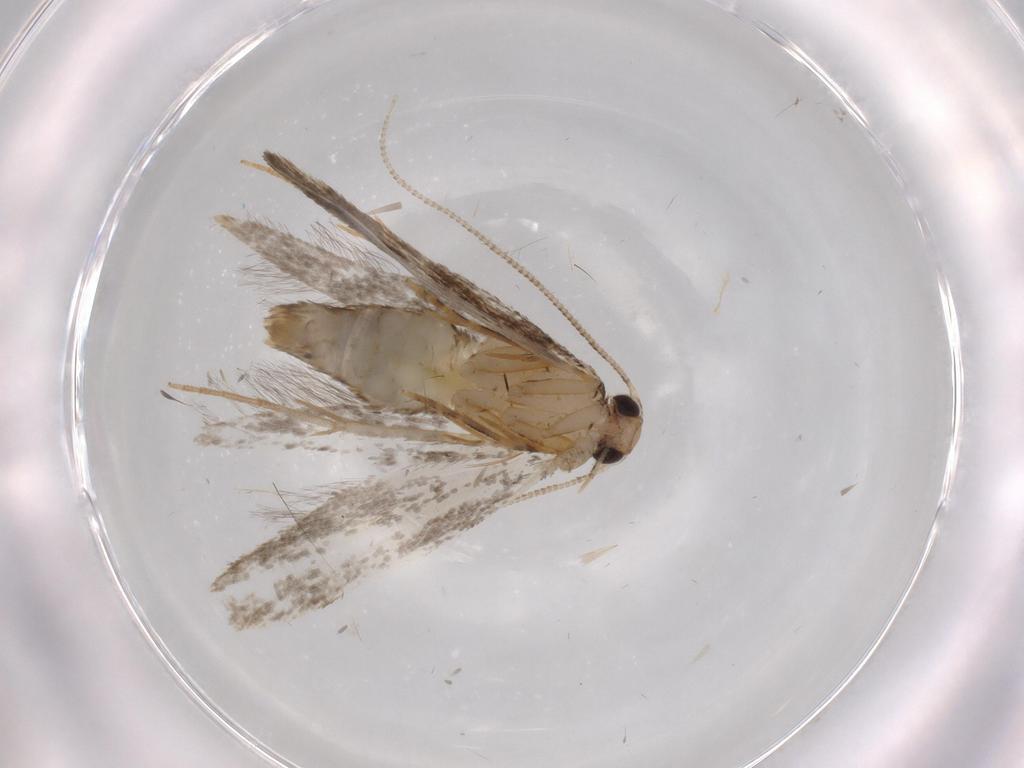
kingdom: Animalia
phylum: Arthropoda
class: Insecta
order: Lepidoptera
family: Tineidae
